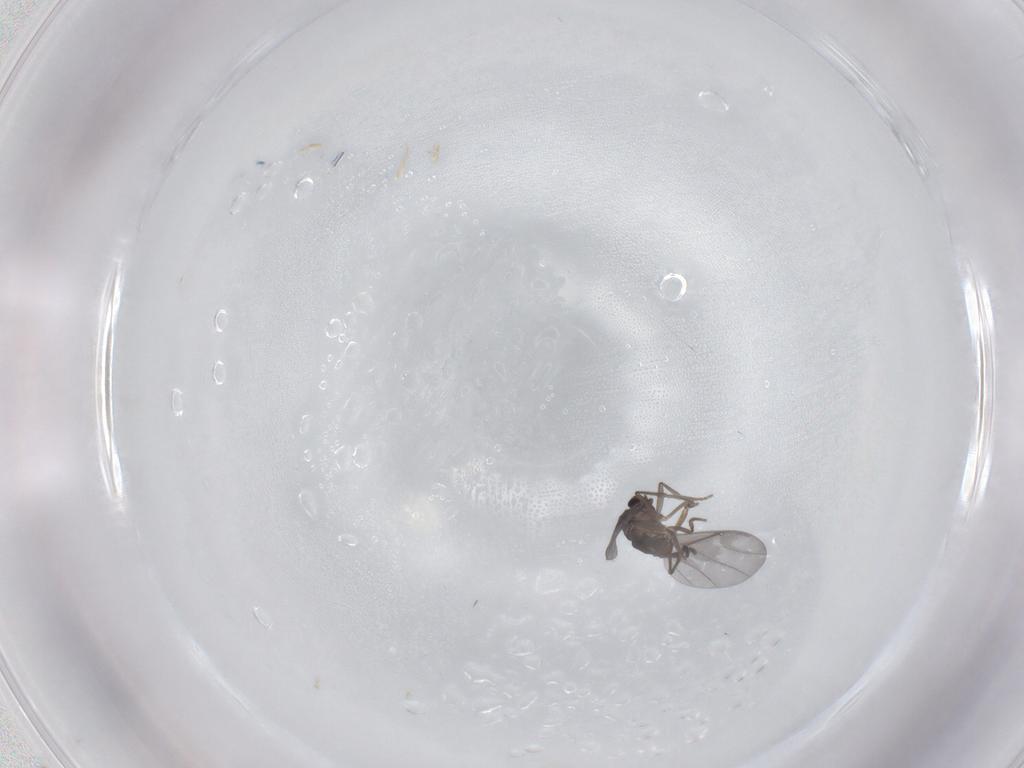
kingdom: Animalia
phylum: Arthropoda
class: Insecta
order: Diptera
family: Phoridae
